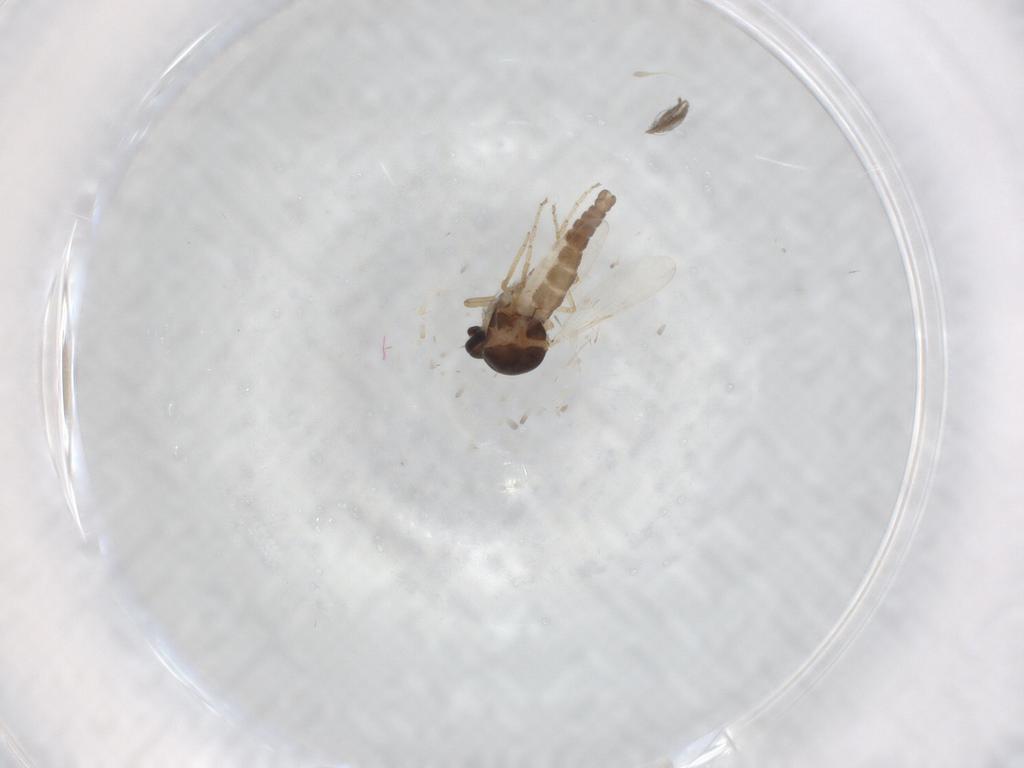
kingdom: Animalia
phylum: Arthropoda
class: Insecta
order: Diptera
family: Ceratopogonidae
